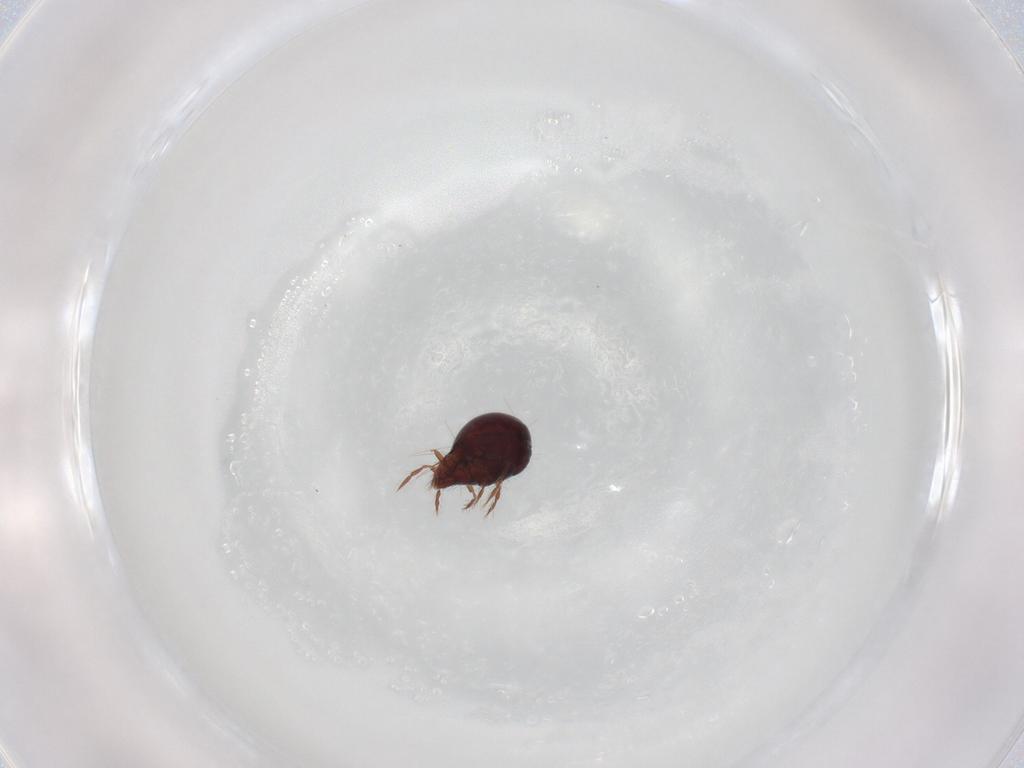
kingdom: Animalia
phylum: Arthropoda
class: Arachnida
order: Sarcoptiformes
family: Ceratoppiidae
